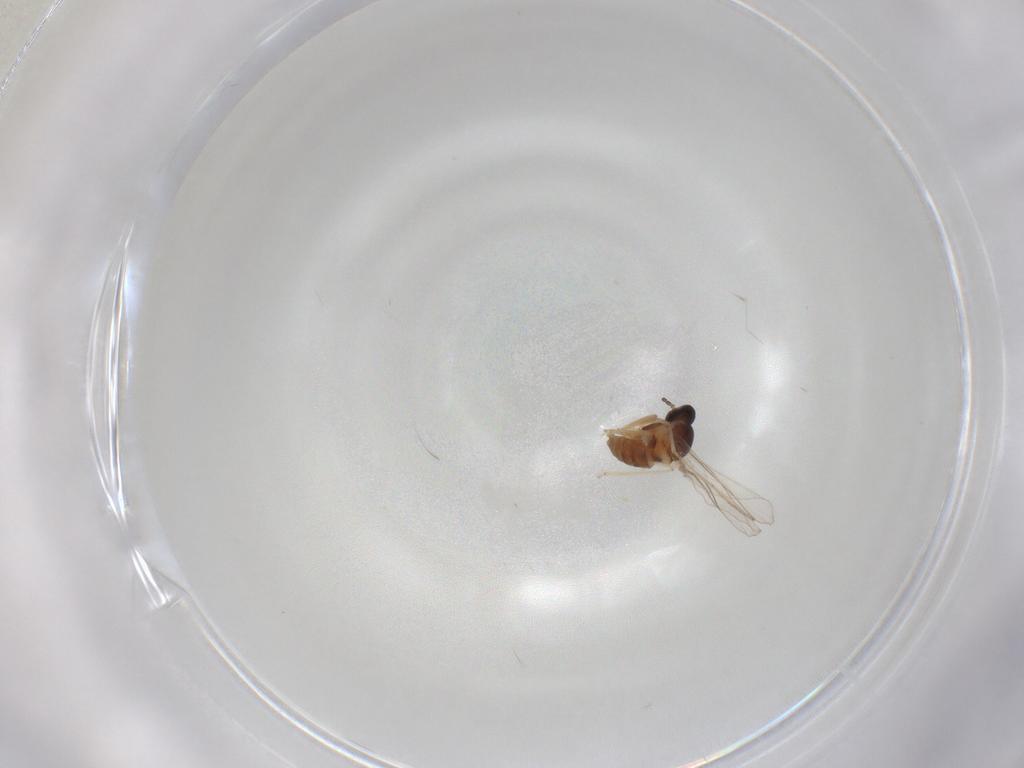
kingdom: Animalia
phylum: Arthropoda
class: Insecta
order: Diptera
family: Cecidomyiidae
